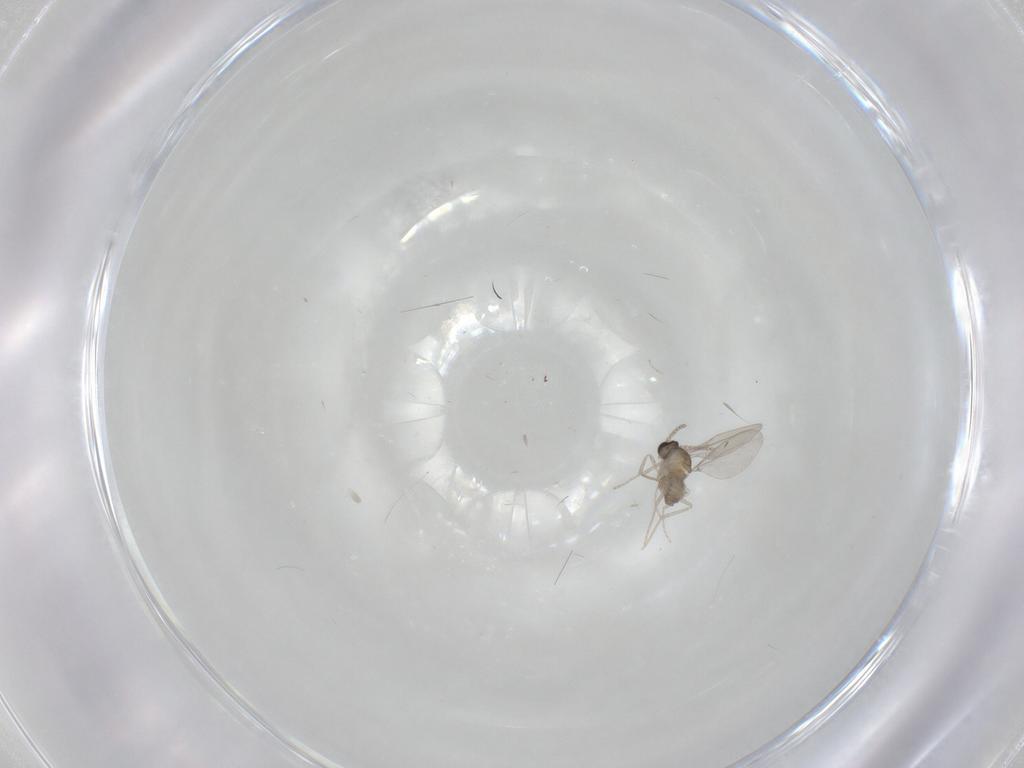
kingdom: Animalia
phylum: Arthropoda
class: Insecta
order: Diptera
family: Cecidomyiidae
